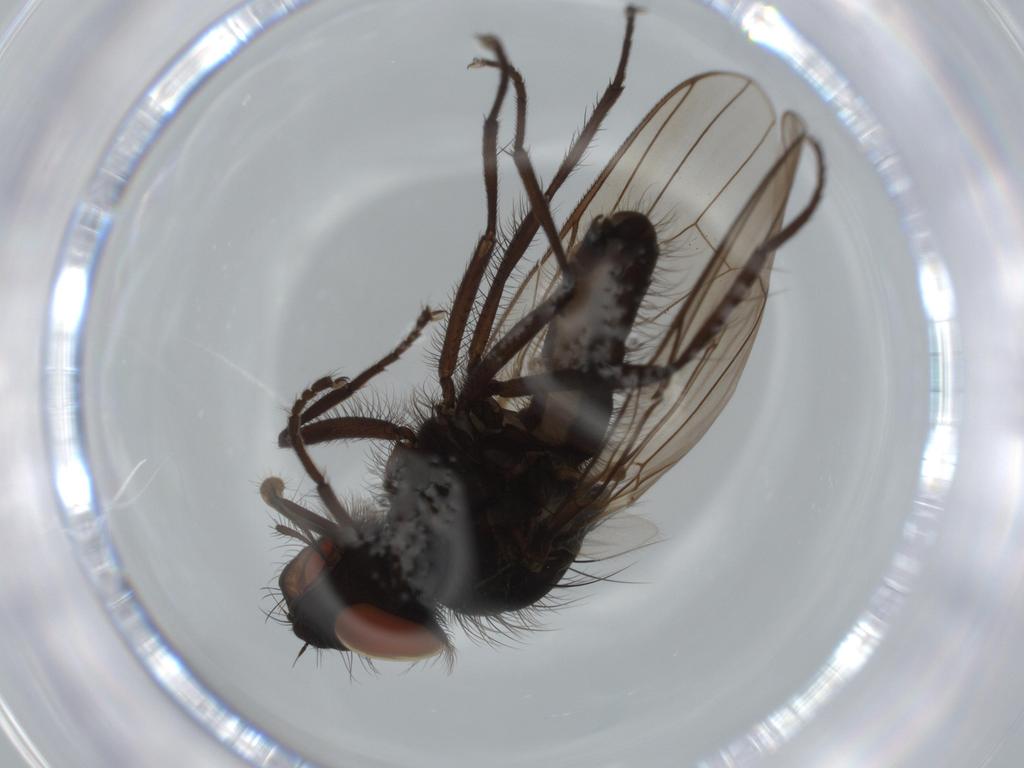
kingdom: Animalia
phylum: Arthropoda
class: Insecta
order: Diptera
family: Anthomyiidae
